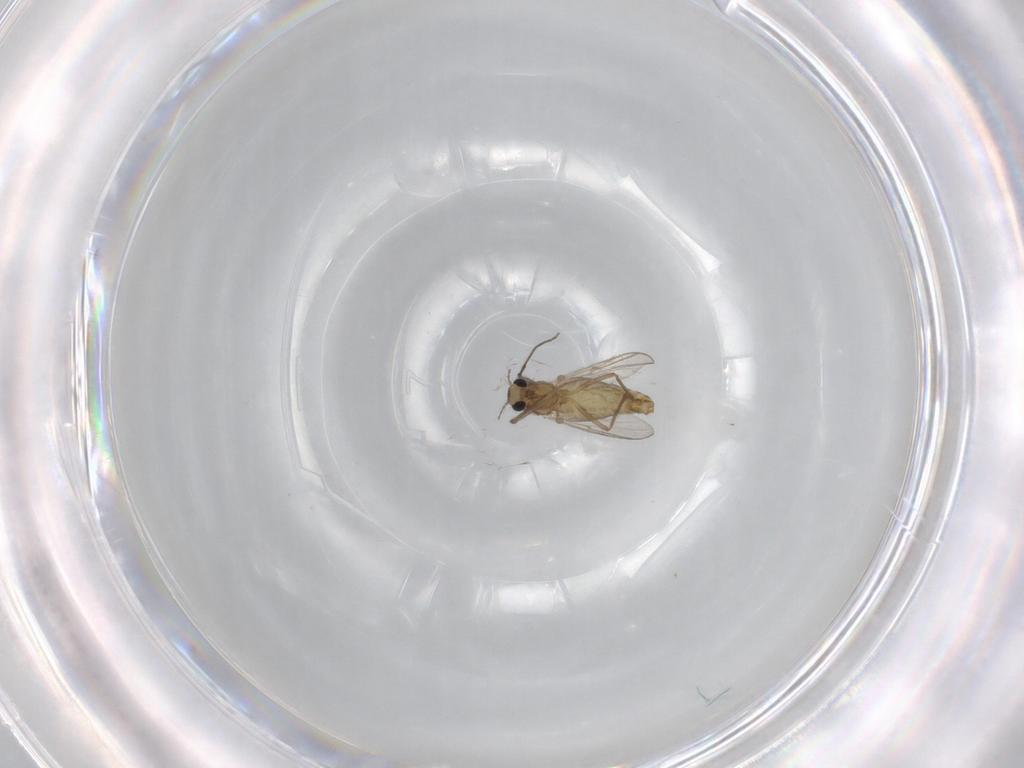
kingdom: Animalia
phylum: Arthropoda
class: Insecta
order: Diptera
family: Chironomidae
